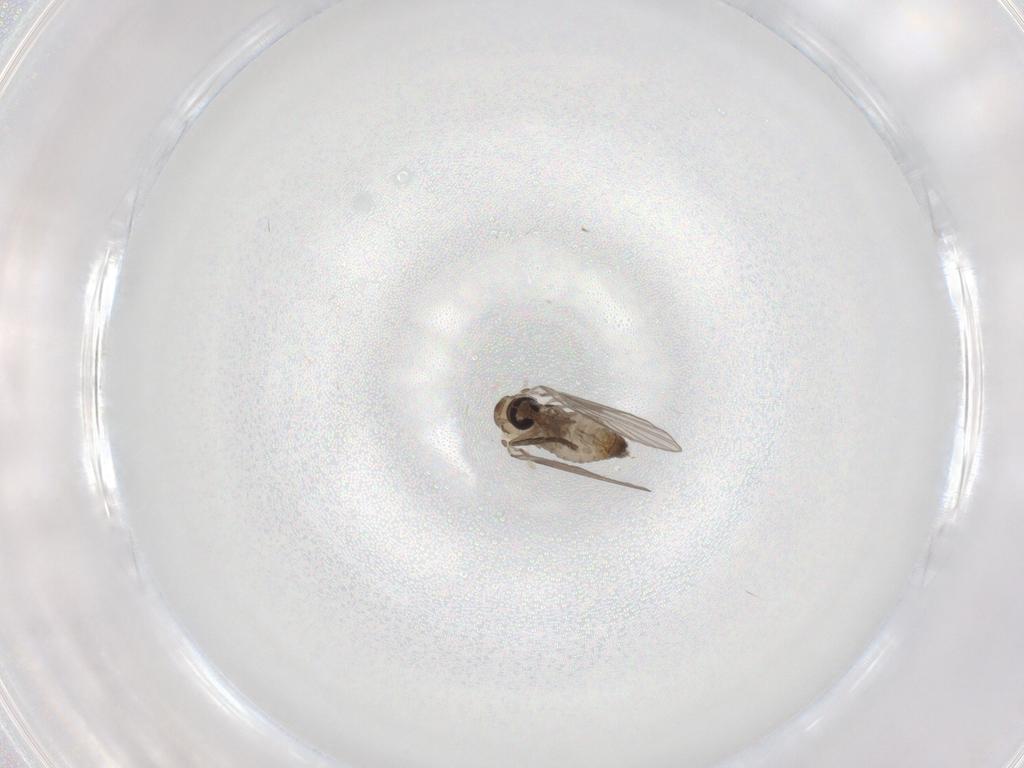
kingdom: Animalia
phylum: Arthropoda
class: Insecta
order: Diptera
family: Psychodidae
